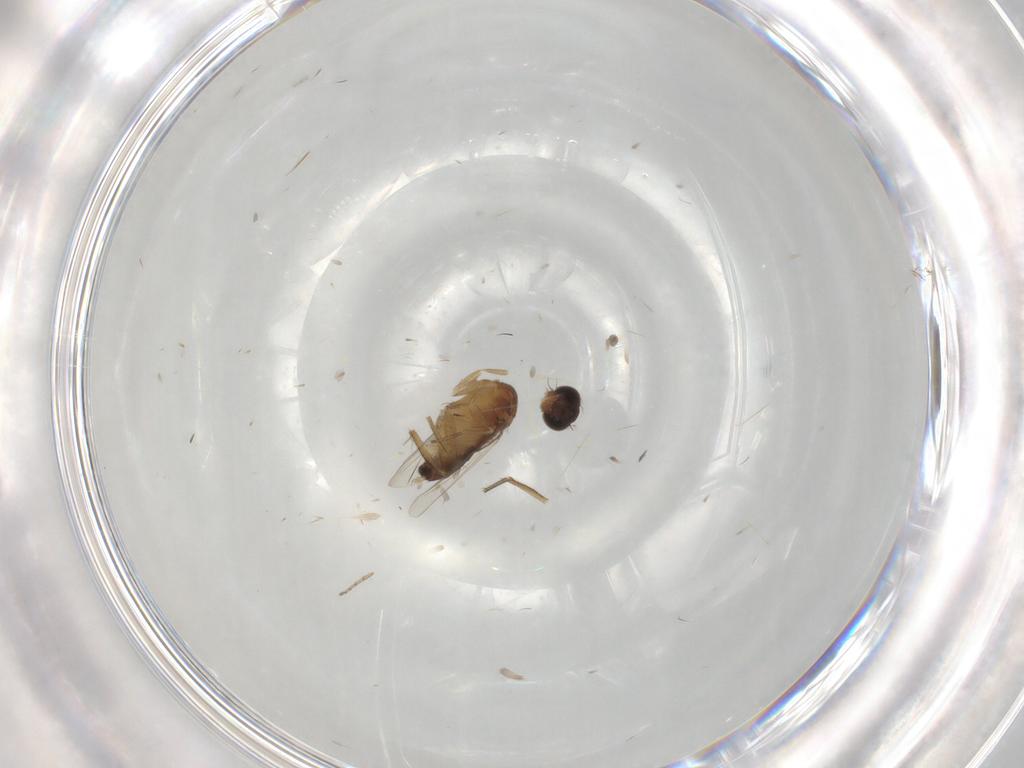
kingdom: Animalia
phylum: Arthropoda
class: Insecta
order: Diptera
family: Phoridae
